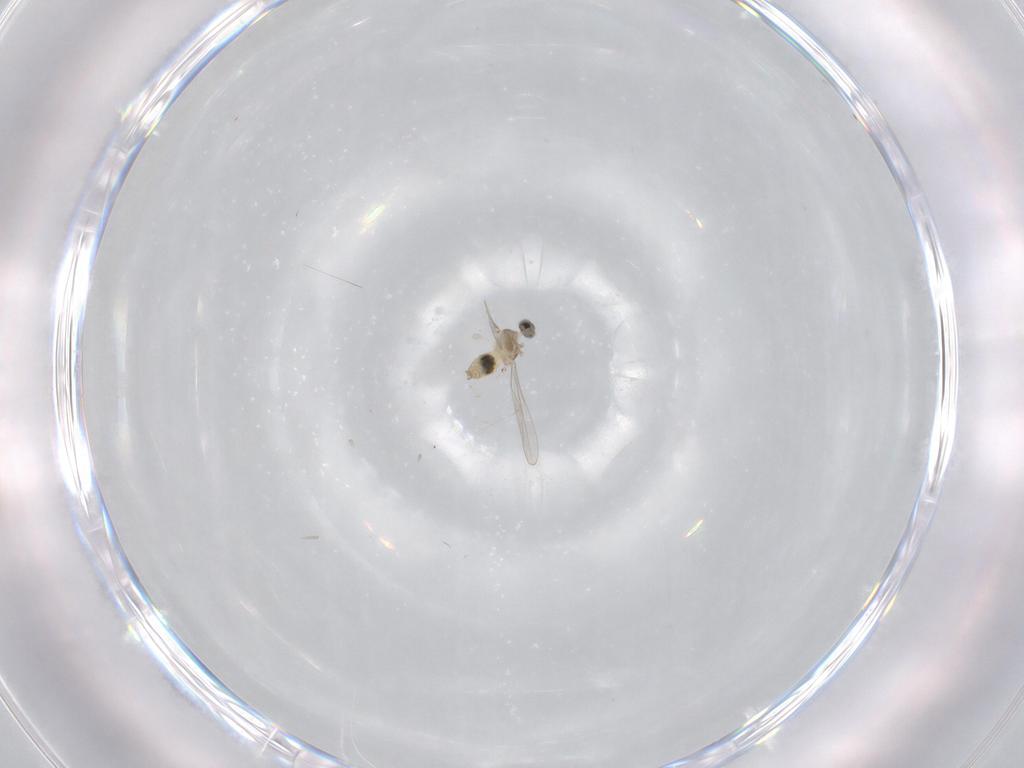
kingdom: Animalia
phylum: Arthropoda
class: Insecta
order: Diptera
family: Cecidomyiidae
